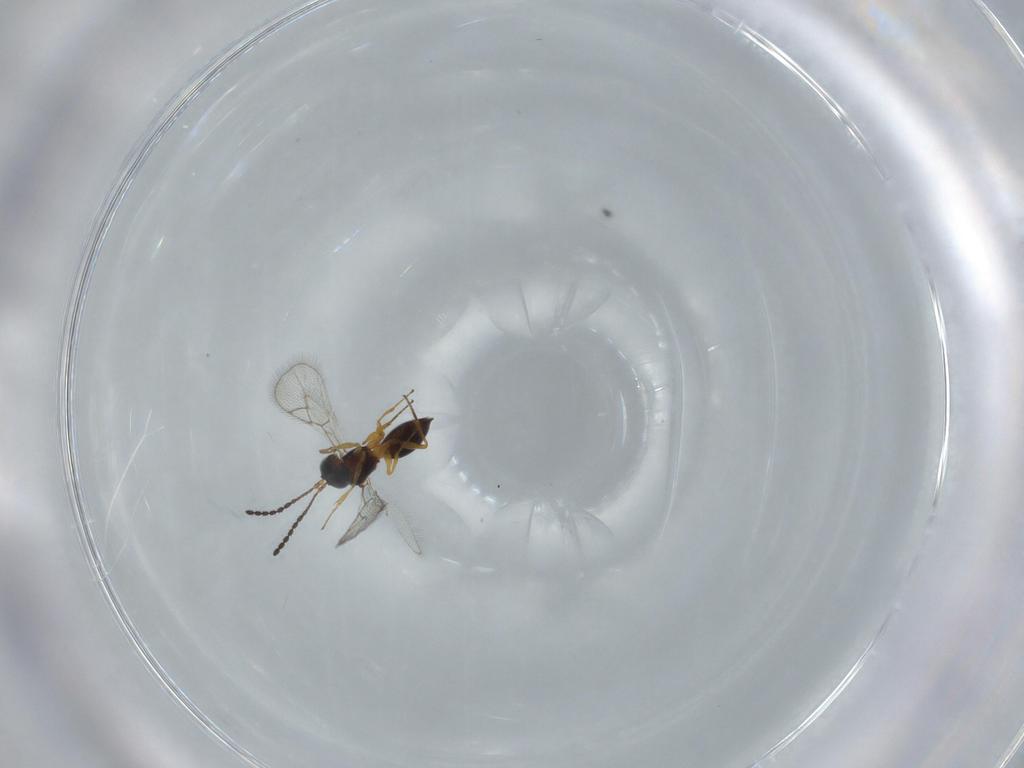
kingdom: Animalia
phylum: Arthropoda
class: Insecta
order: Hymenoptera
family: Figitidae
